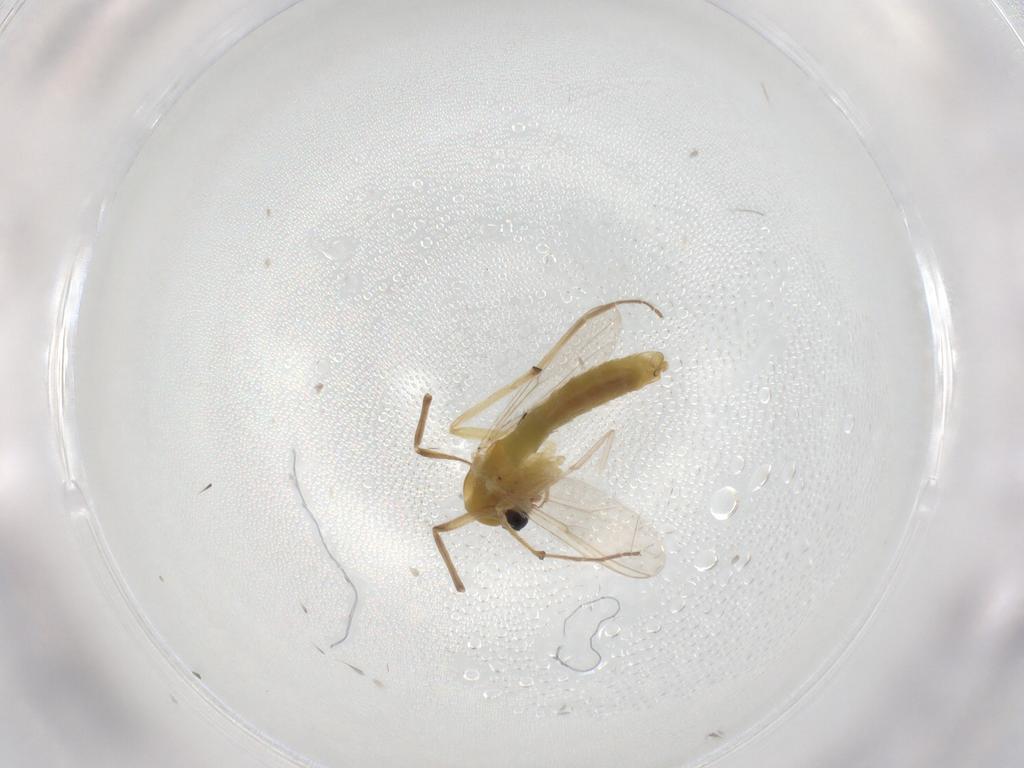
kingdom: Animalia
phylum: Arthropoda
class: Insecta
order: Diptera
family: Chironomidae
